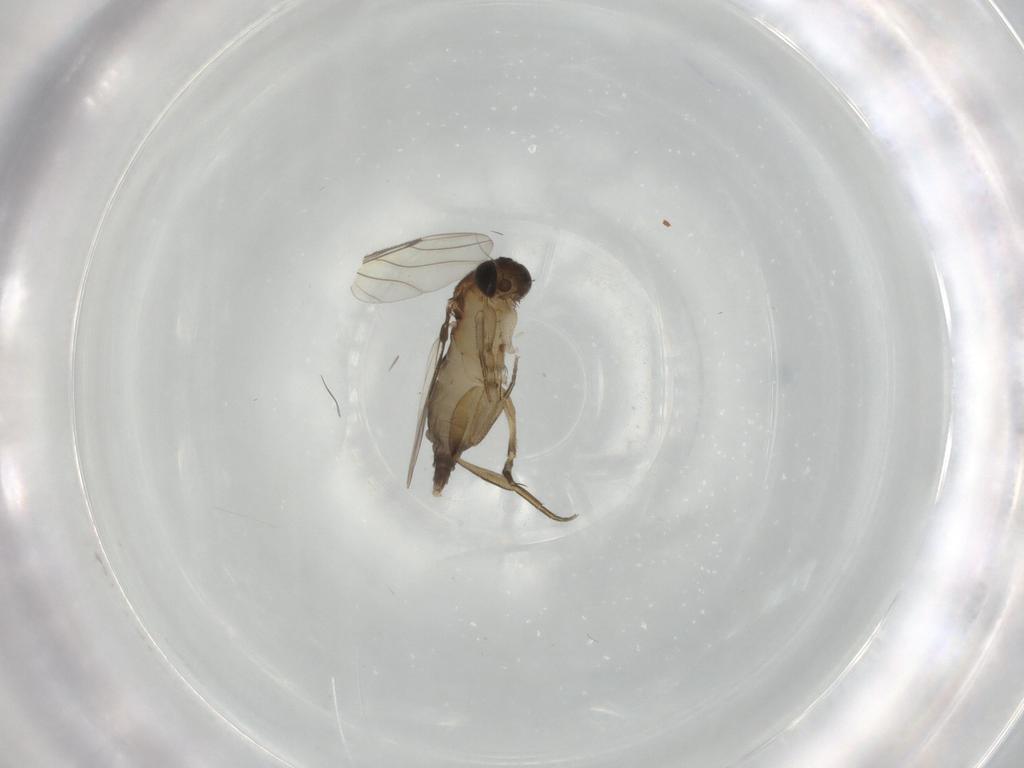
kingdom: Animalia
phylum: Arthropoda
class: Insecta
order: Diptera
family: Phoridae
